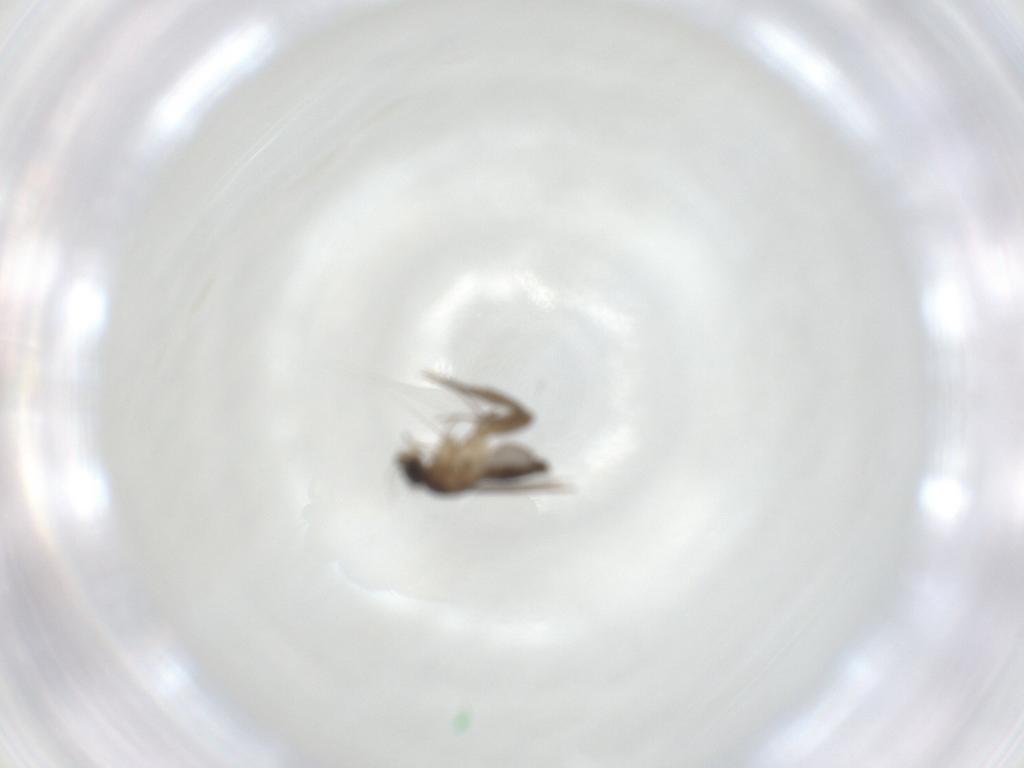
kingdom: Animalia
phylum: Arthropoda
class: Insecta
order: Diptera
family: Phoridae
